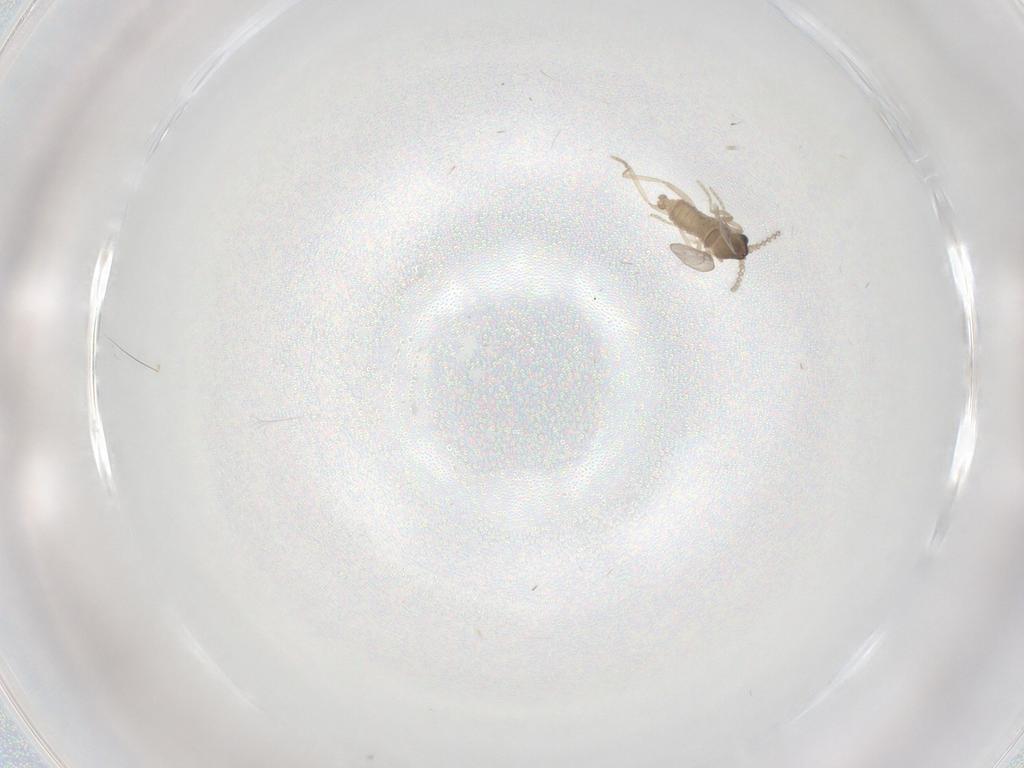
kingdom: Animalia
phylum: Arthropoda
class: Insecta
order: Diptera
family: Cecidomyiidae
